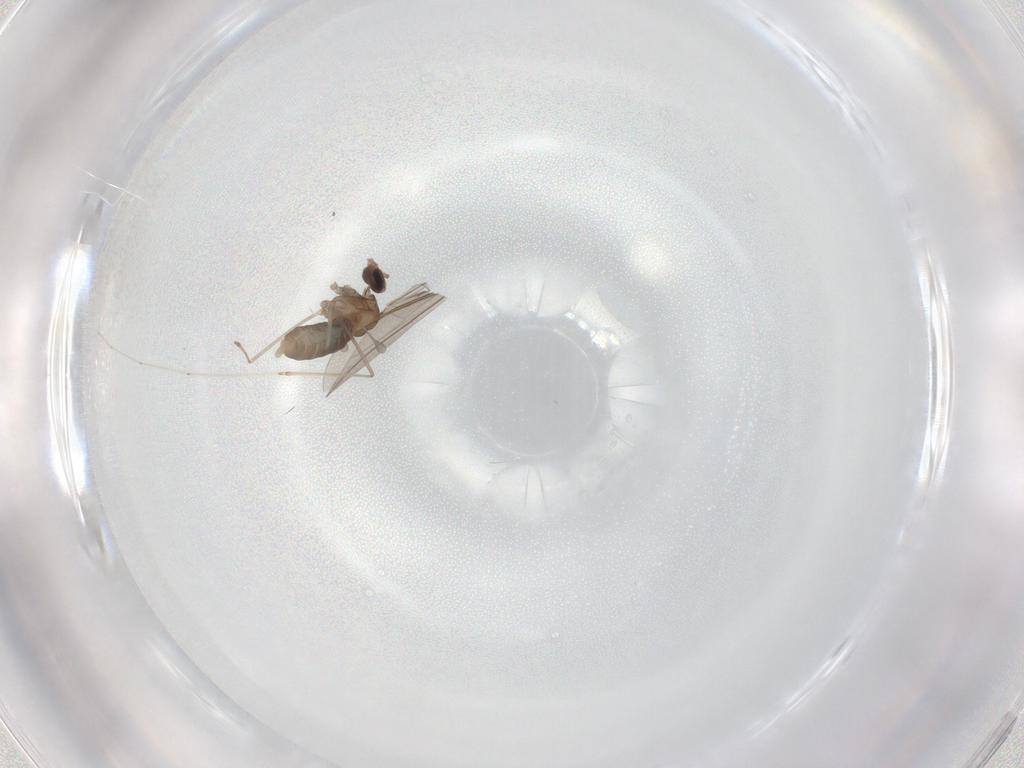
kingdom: Animalia
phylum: Arthropoda
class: Insecta
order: Diptera
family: Cecidomyiidae
